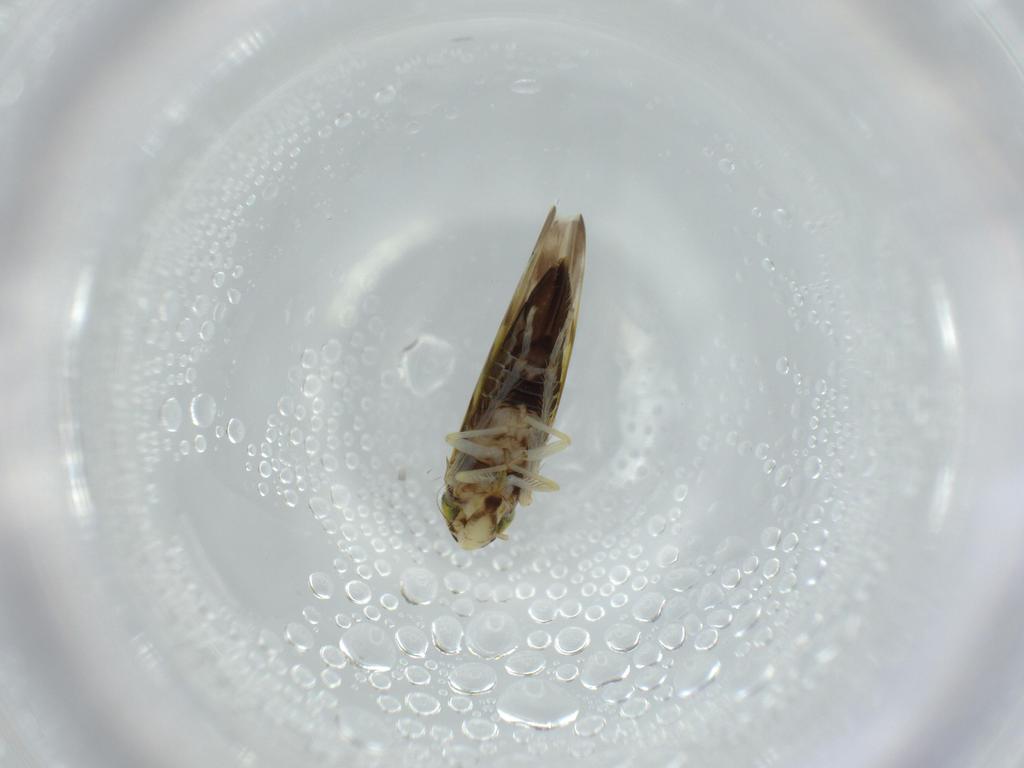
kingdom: Animalia
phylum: Arthropoda
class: Insecta
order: Hemiptera
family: Cicadellidae
